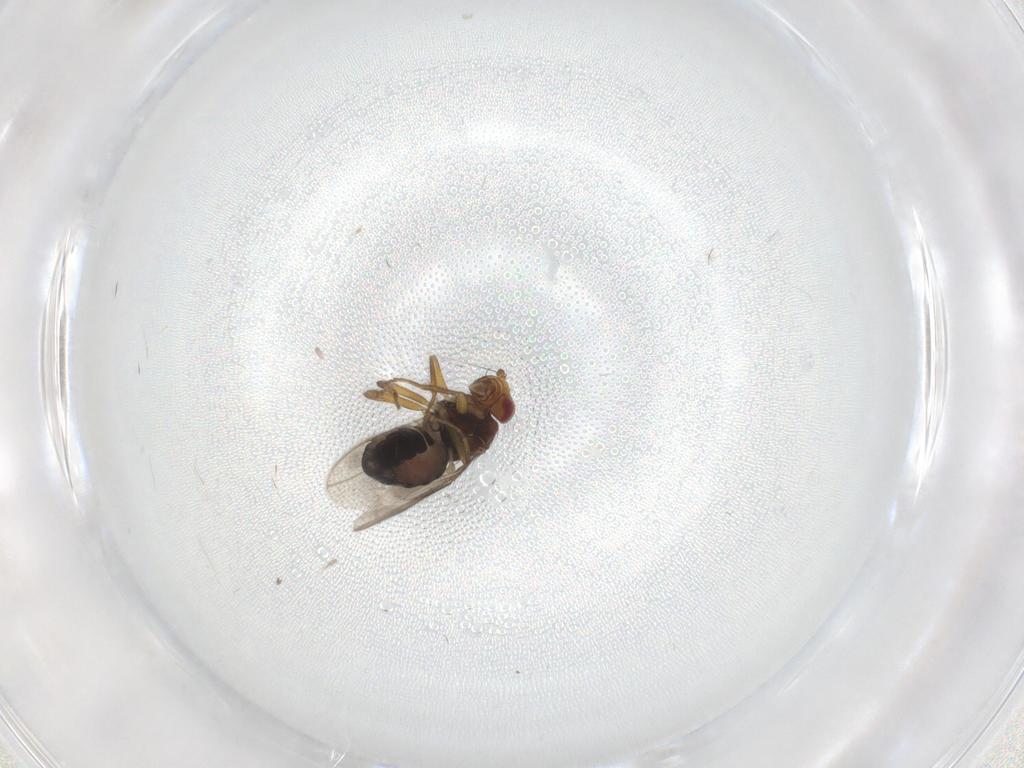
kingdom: Animalia
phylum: Arthropoda
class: Insecta
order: Diptera
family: Sphaeroceridae
